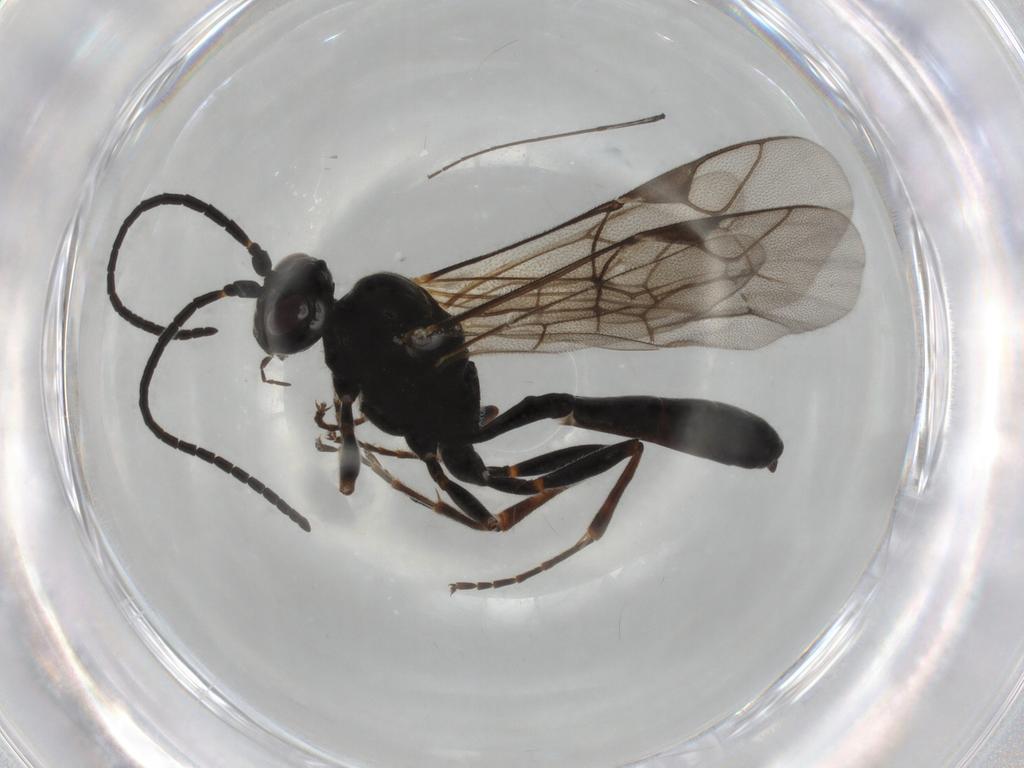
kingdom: Animalia
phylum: Arthropoda
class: Insecta
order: Hymenoptera
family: Ichneumonidae
